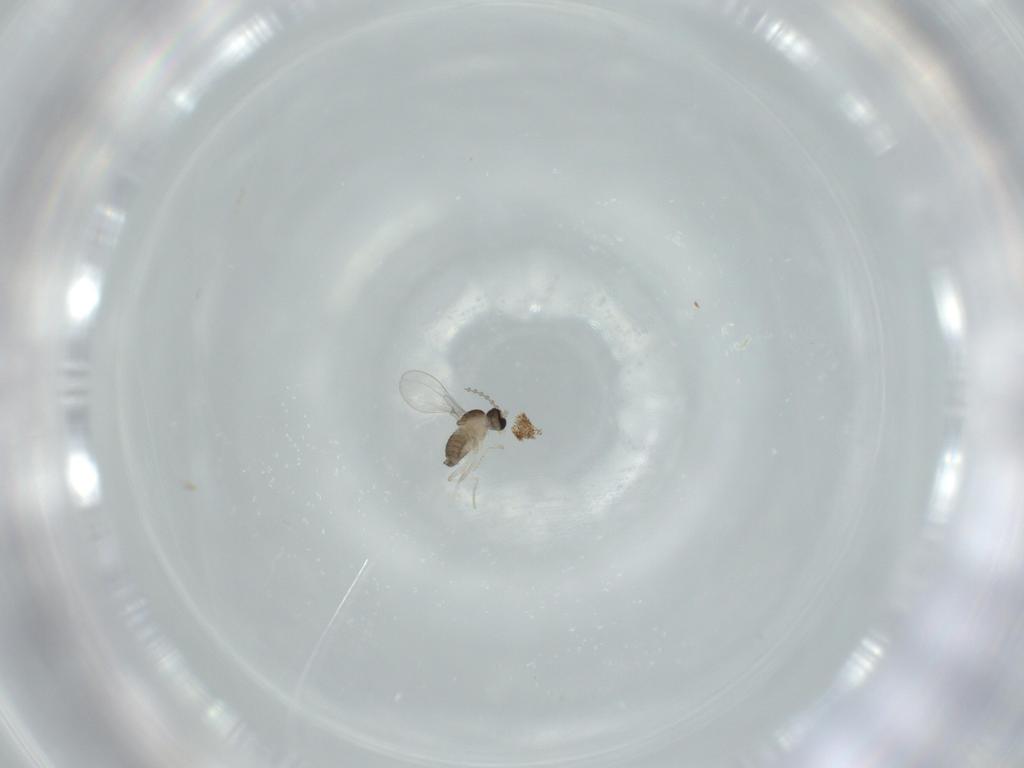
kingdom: Animalia
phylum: Arthropoda
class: Insecta
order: Diptera
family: Cecidomyiidae
